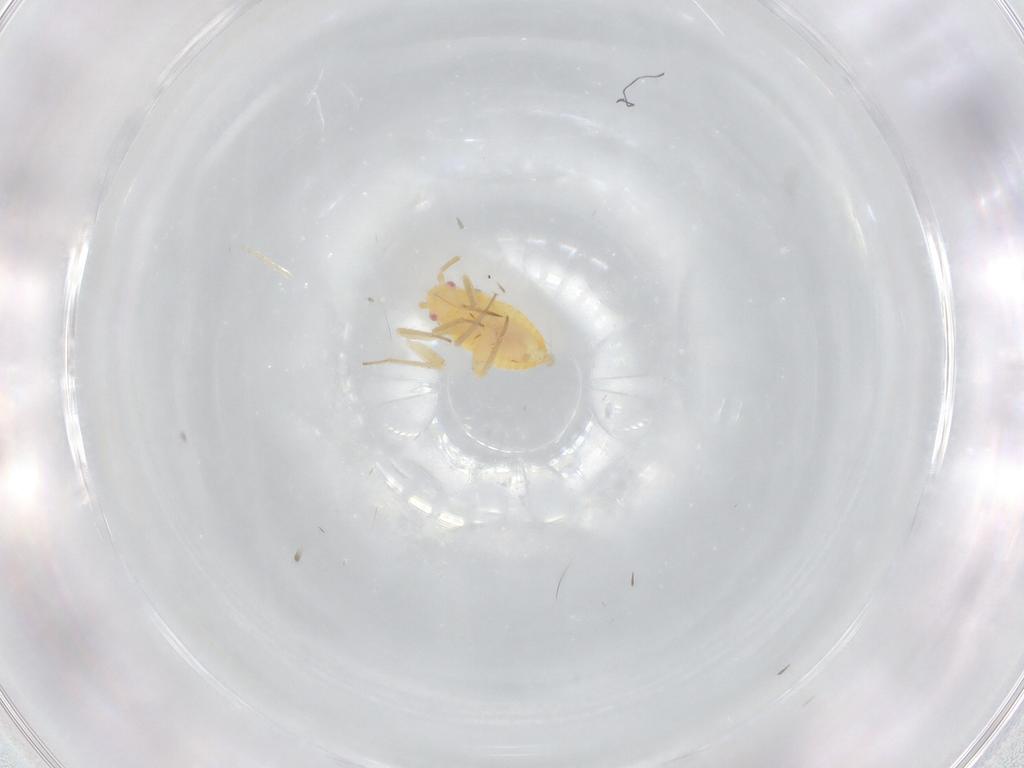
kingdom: Animalia
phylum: Arthropoda
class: Insecta
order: Hemiptera
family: Miridae
